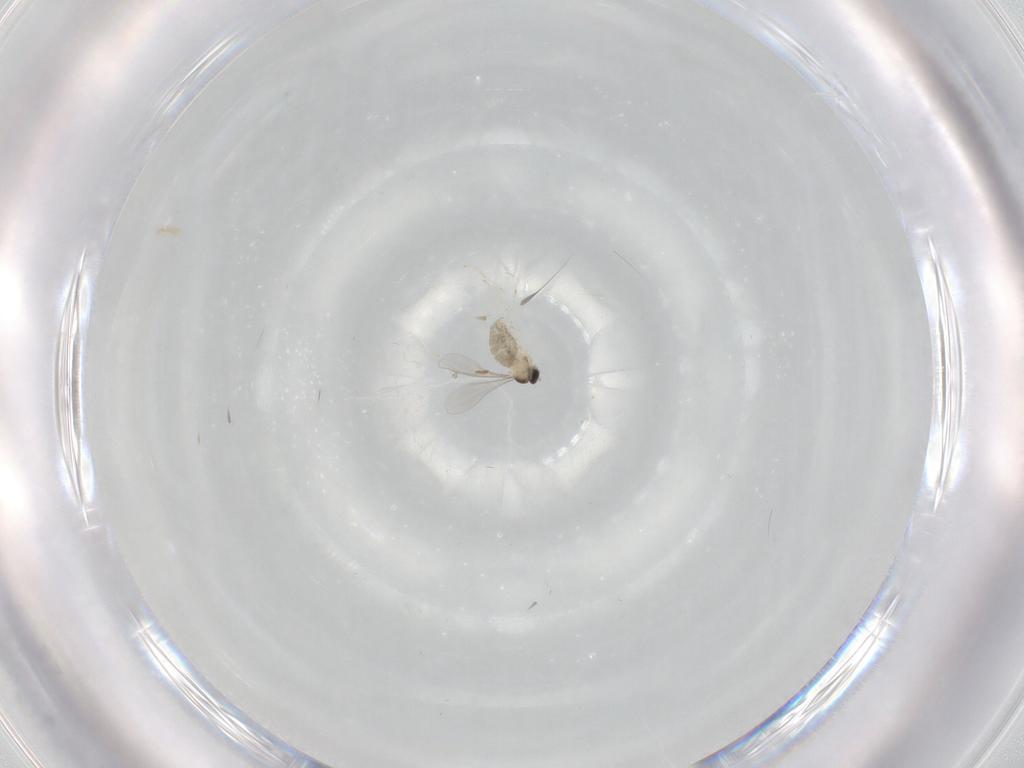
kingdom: Animalia
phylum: Arthropoda
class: Insecta
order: Diptera
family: Cecidomyiidae
